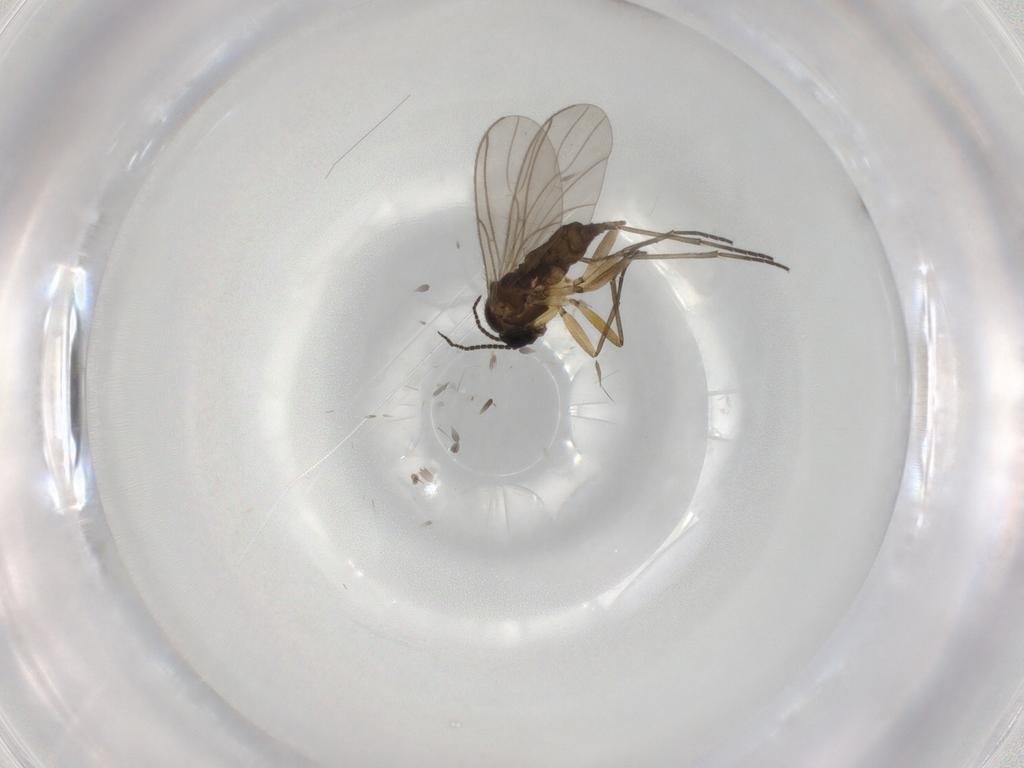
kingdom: Animalia
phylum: Arthropoda
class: Insecta
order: Diptera
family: Sciaridae
